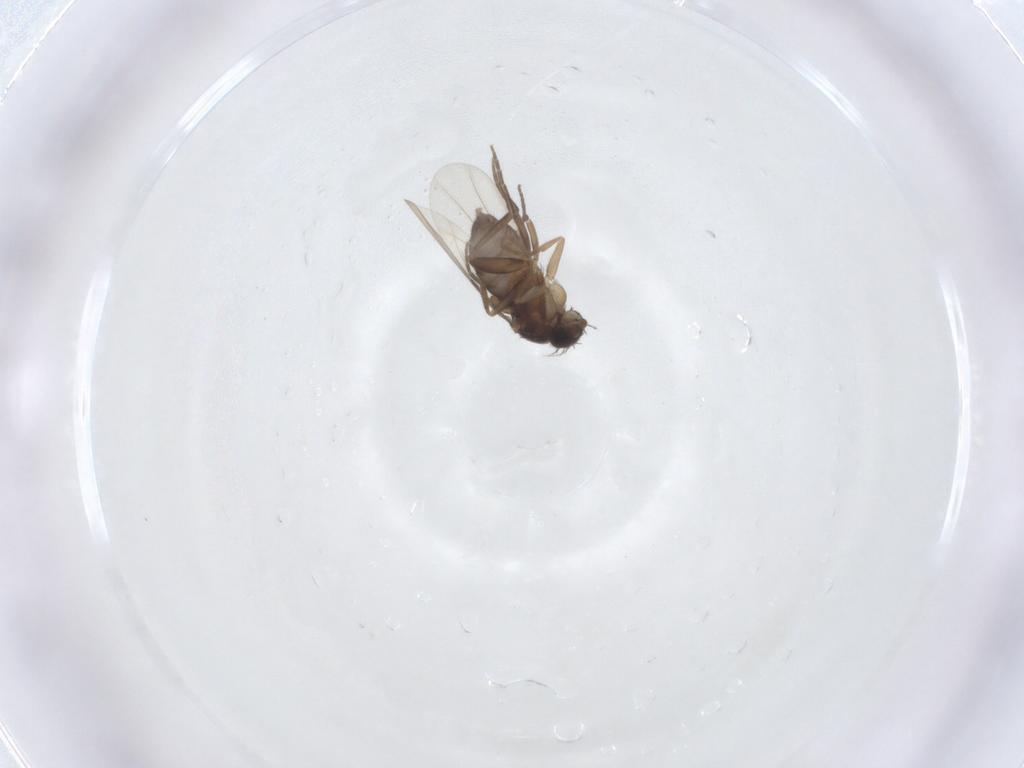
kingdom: Animalia
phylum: Arthropoda
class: Insecta
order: Diptera
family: Phoridae
